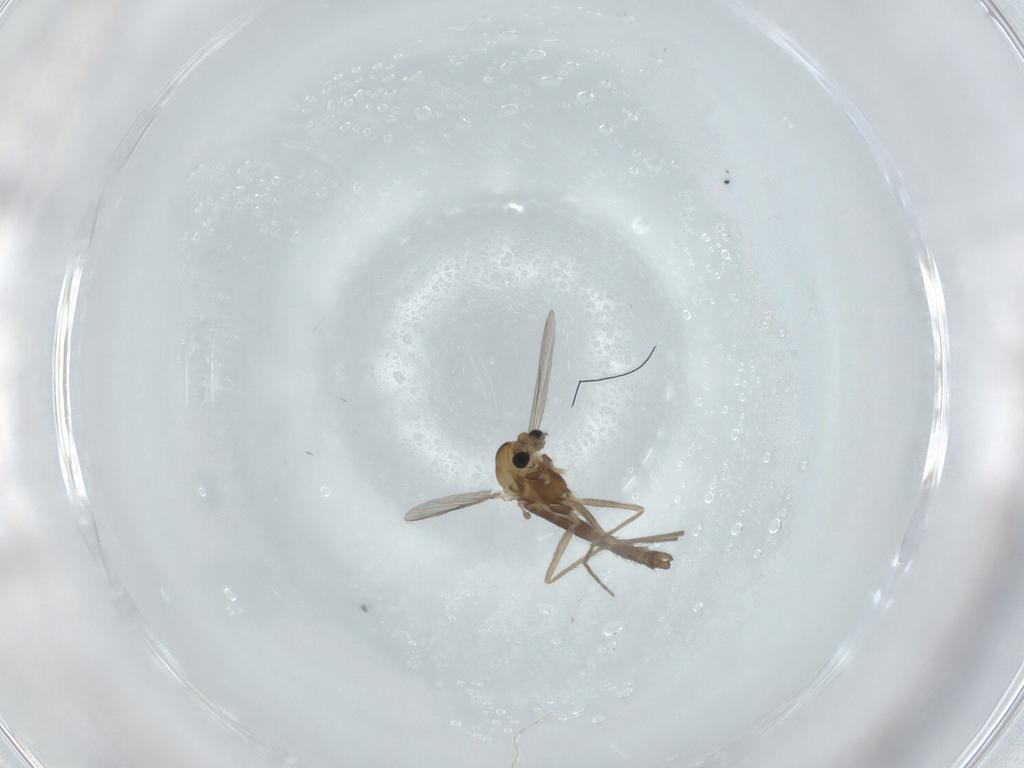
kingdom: Animalia
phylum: Arthropoda
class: Insecta
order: Diptera
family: Chironomidae
